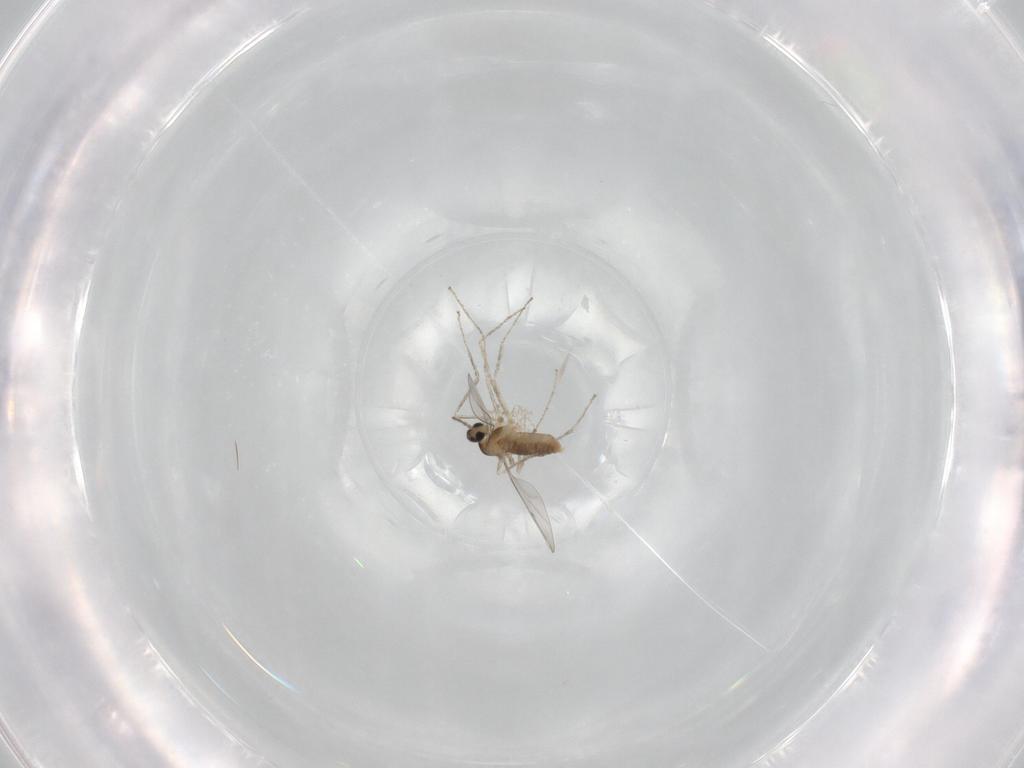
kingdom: Animalia
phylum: Arthropoda
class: Insecta
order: Diptera
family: Cecidomyiidae
